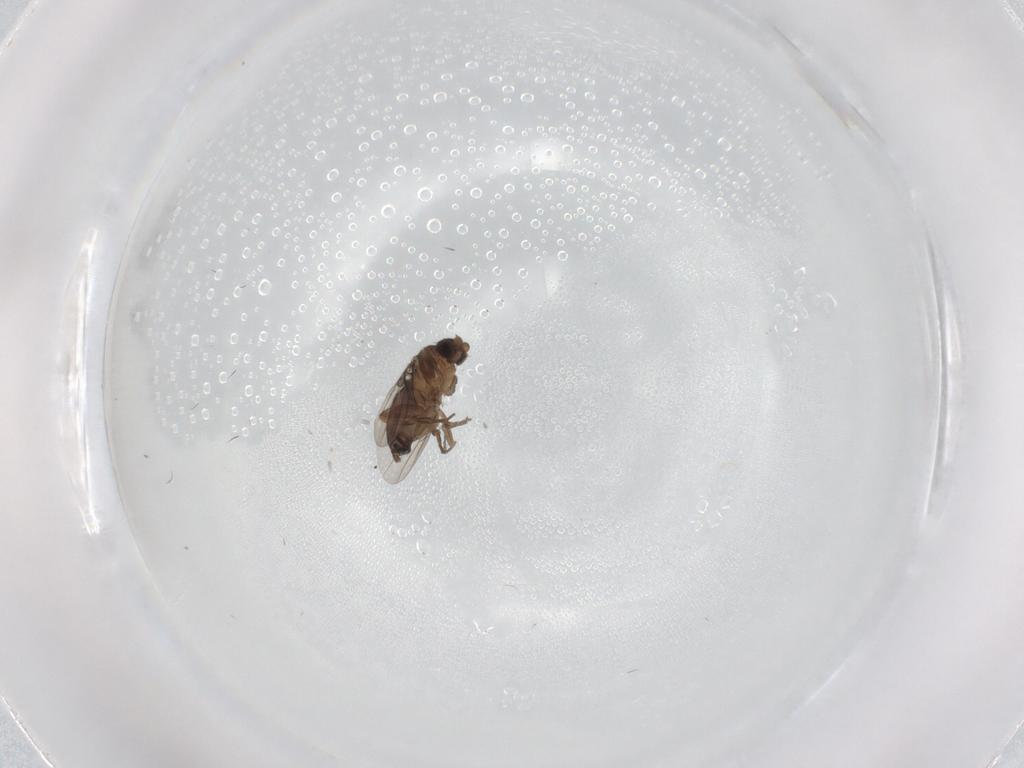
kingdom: Animalia
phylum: Arthropoda
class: Insecta
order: Diptera
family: Phoridae
